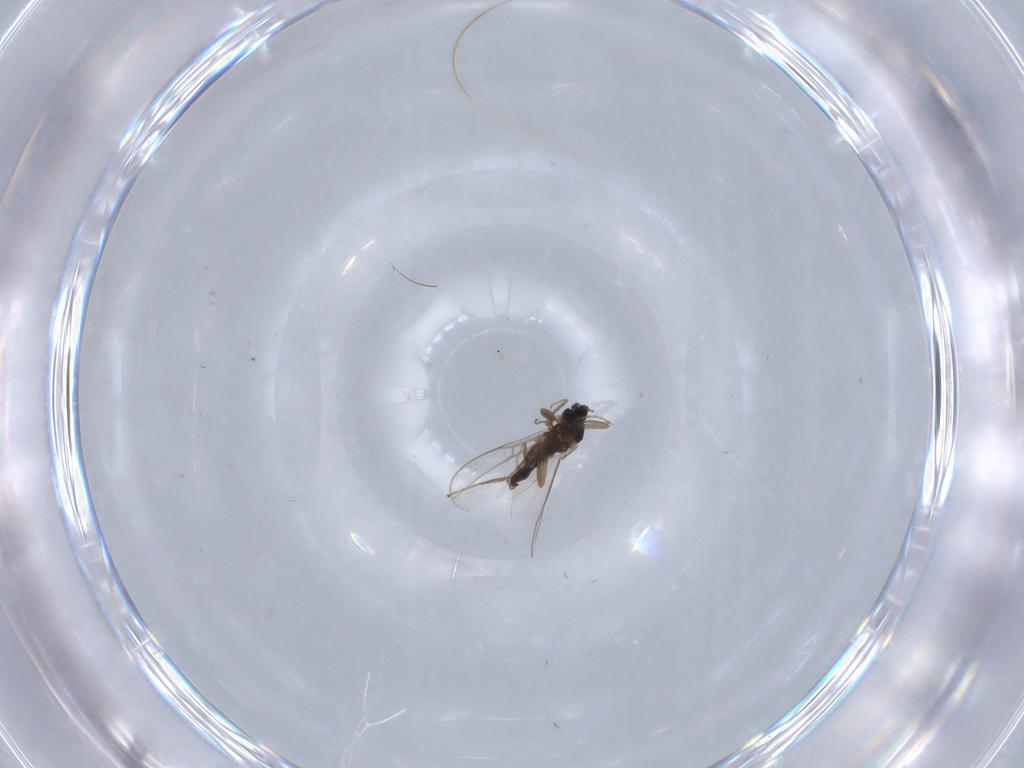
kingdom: Animalia
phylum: Arthropoda
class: Insecta
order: Diptera
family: Cecidomyiidae
